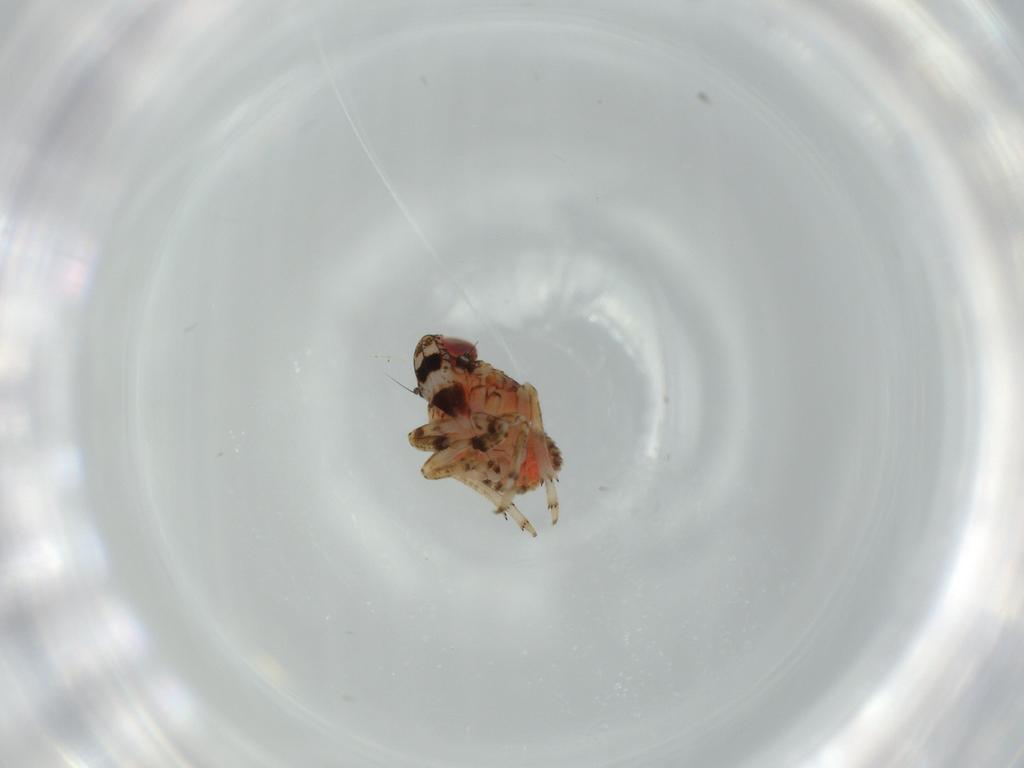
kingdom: Animalia
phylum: Arthropoda
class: Insecta
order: Hemiptera
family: Issidae
